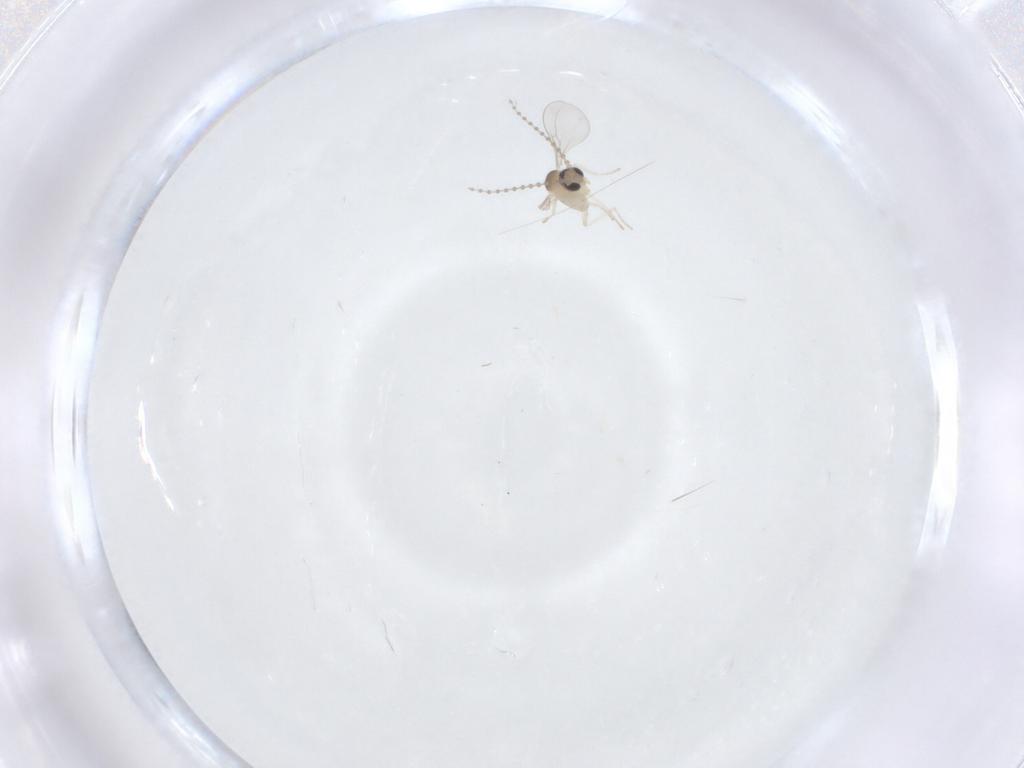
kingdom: Animalia
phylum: Arthropoda
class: Insecta
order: Diptera
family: Cecidomyiidae
